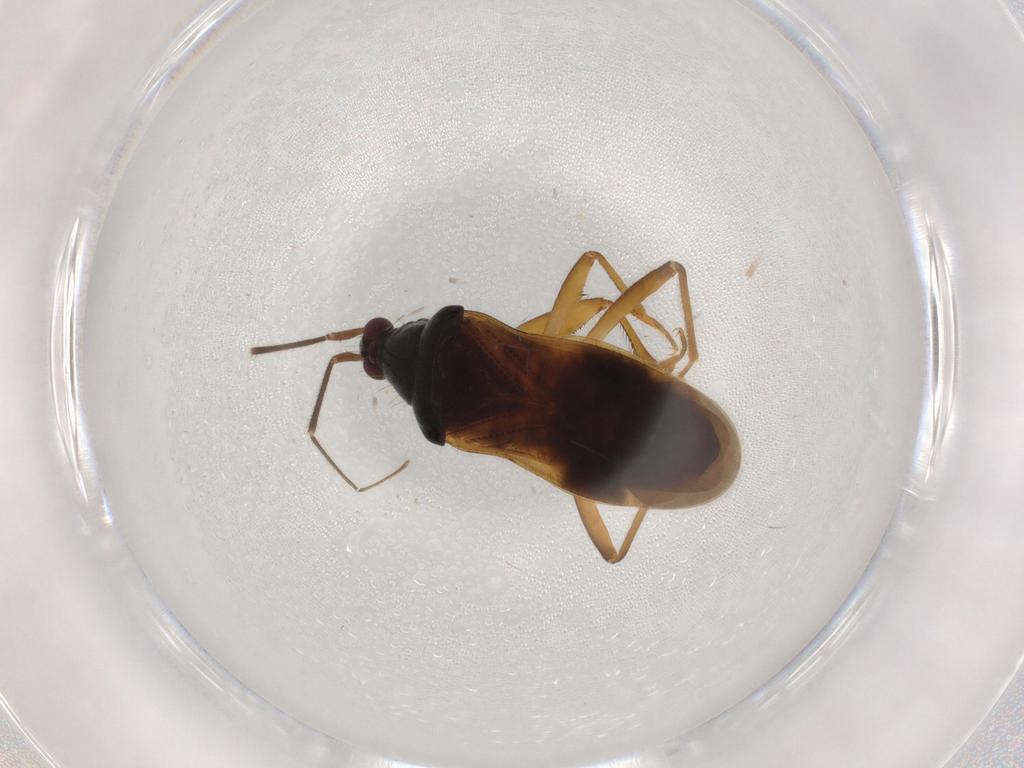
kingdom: Animalia
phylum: Arthropoda
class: Insecta
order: Hemiptera
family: Nabidae
